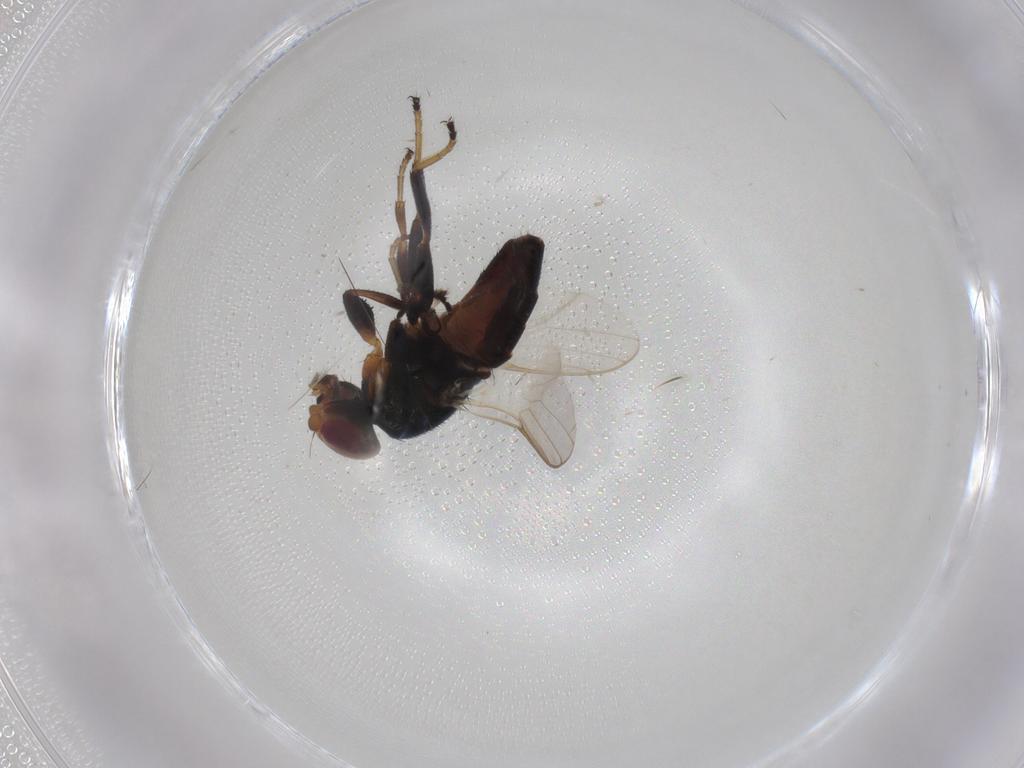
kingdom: Animalia
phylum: Arthropoda
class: Insecta
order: Diptera
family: Chloropidae
